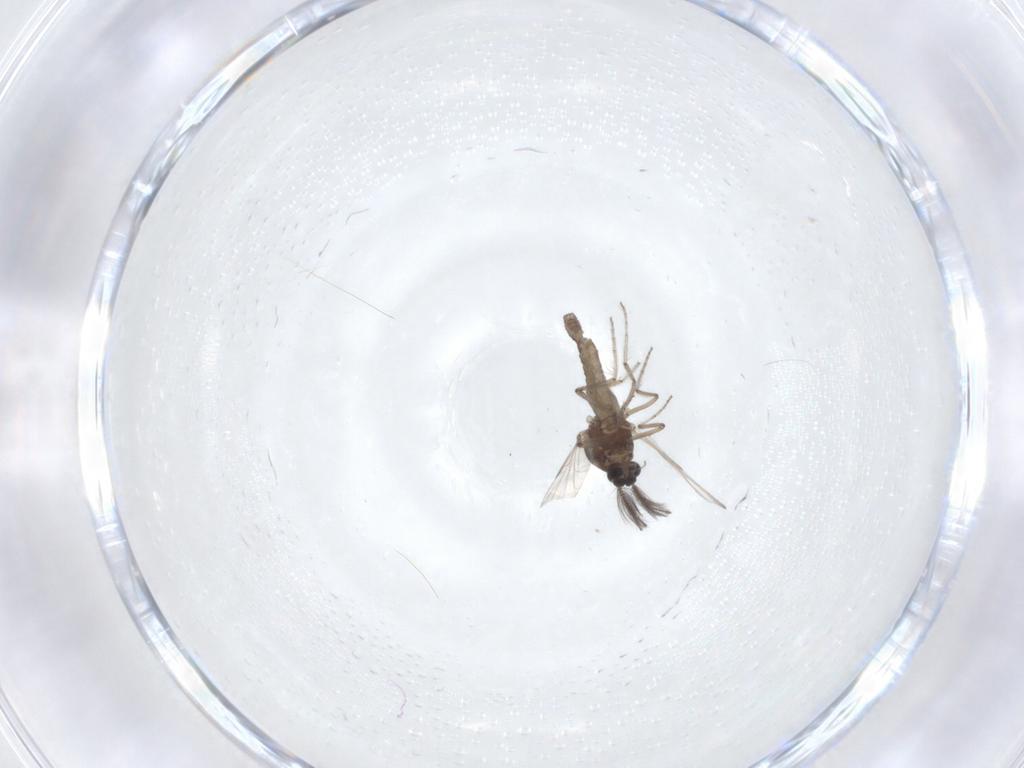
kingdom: Animalia
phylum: Arthropoda
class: Insecta
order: Diptera
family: Ceratopogonidae
